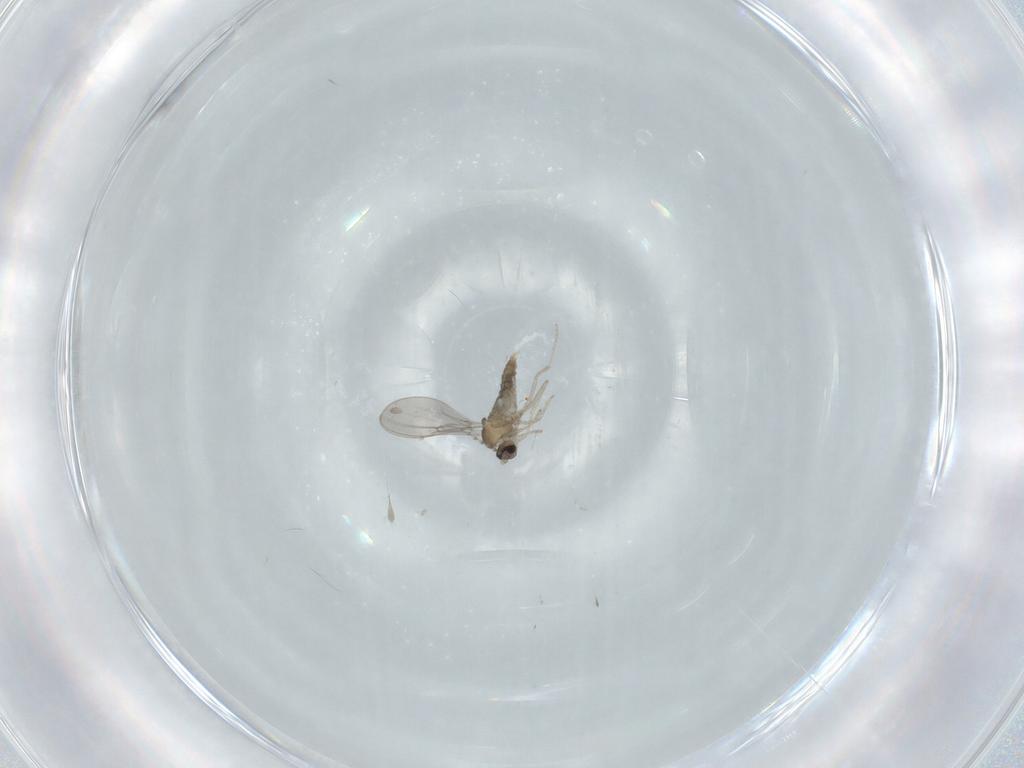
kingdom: Animalia
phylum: Arthropoda
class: Insecta
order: Diptera
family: Cecidomyiidae
